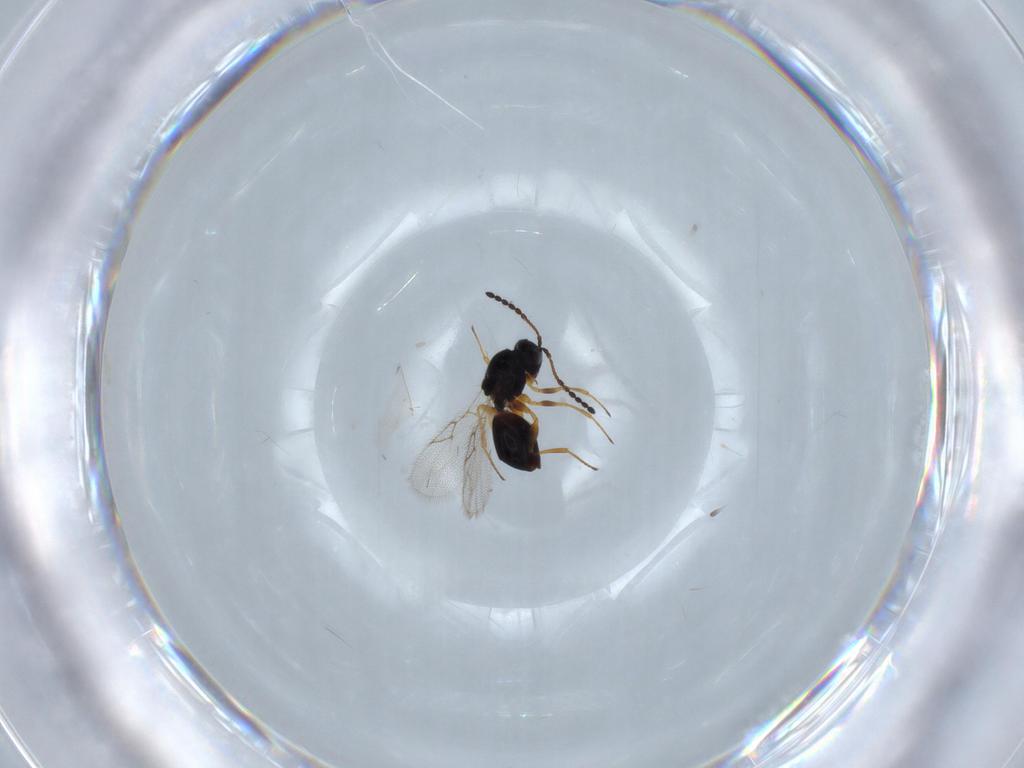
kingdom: Animalia
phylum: Arthropoda
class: Insecta
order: Hymenoptera
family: Figitidae
